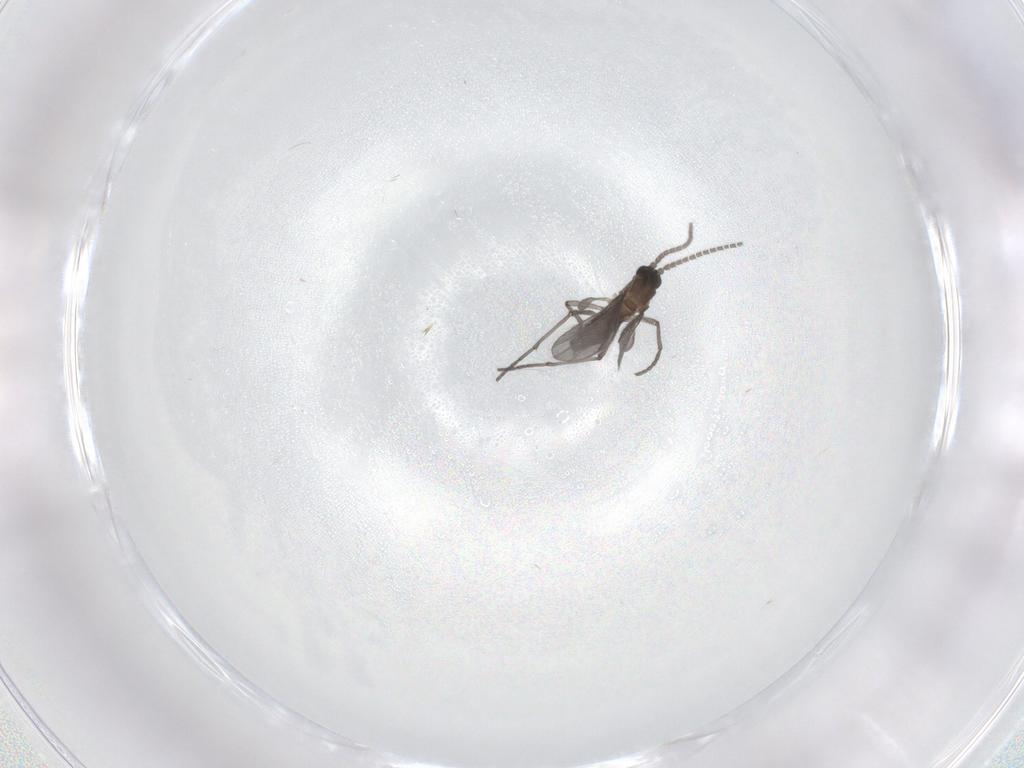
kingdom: Animalia
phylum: Arthropoda
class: Insecta
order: Diptera
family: Sciaridae
